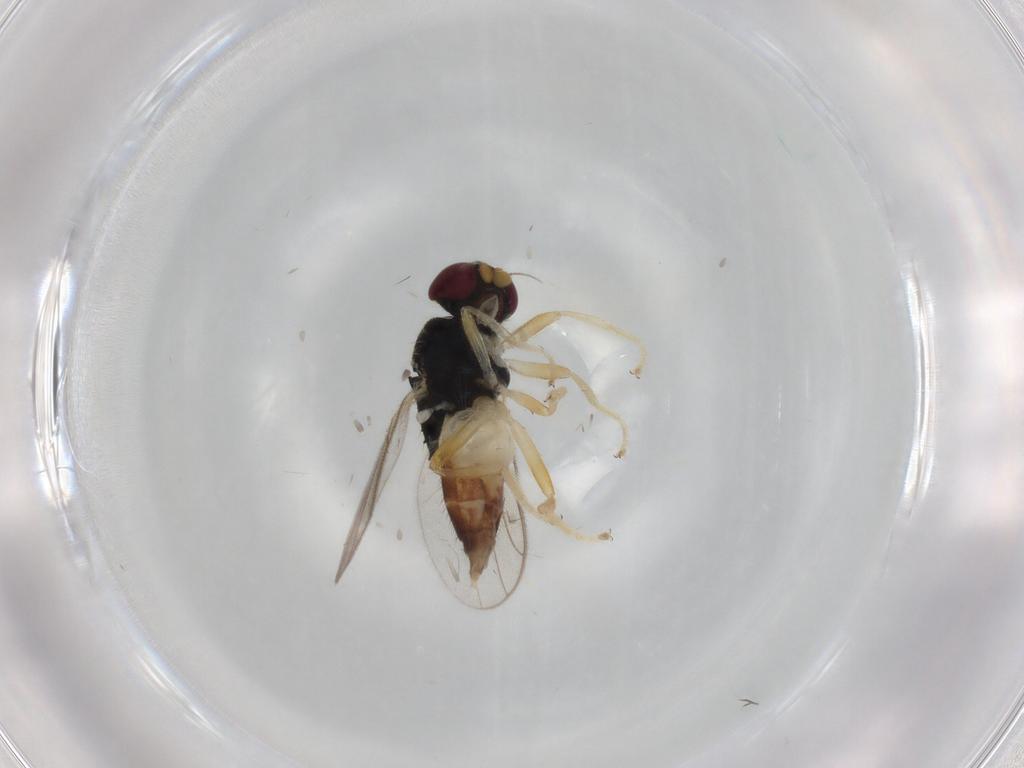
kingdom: Animalia
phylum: Arthropoda
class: Insecta
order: Diptera
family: Chloropidae
